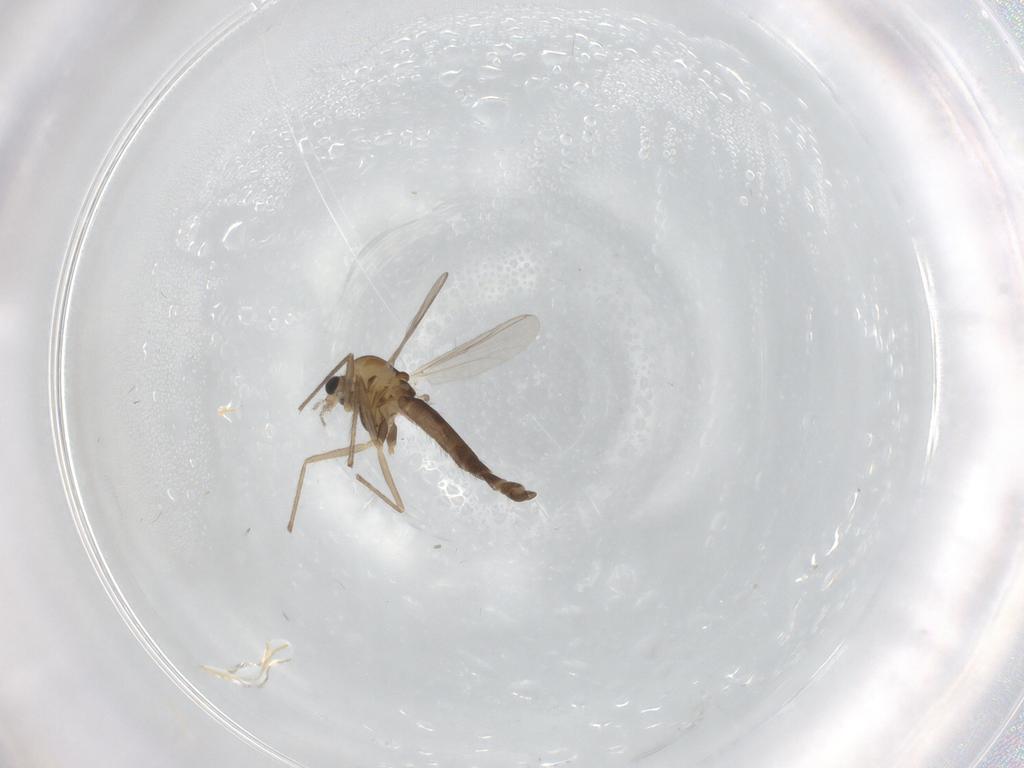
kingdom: Animalia
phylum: Arthropoda
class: Insecta
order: Diptera
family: Chironomidae
